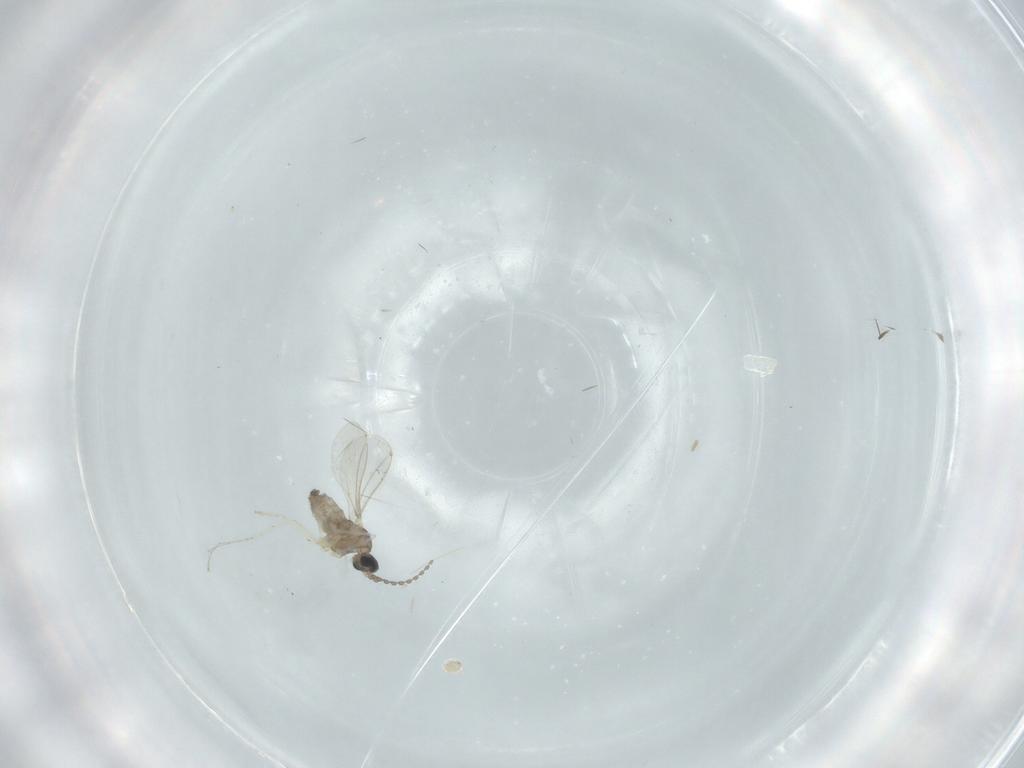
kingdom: Animalia
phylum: Arthropoda
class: Insecta
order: Diptera
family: Cecidomyiidae
